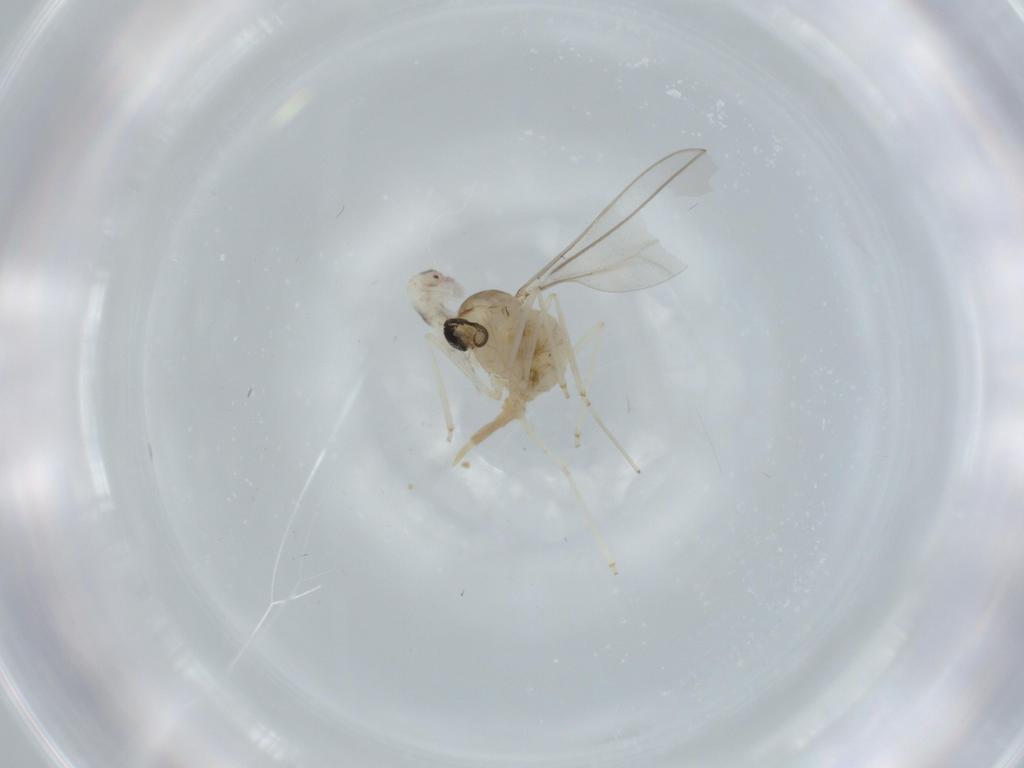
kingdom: Animalia
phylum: Arthropoda
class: Insecta
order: Diptera
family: Cecidomyiidae
